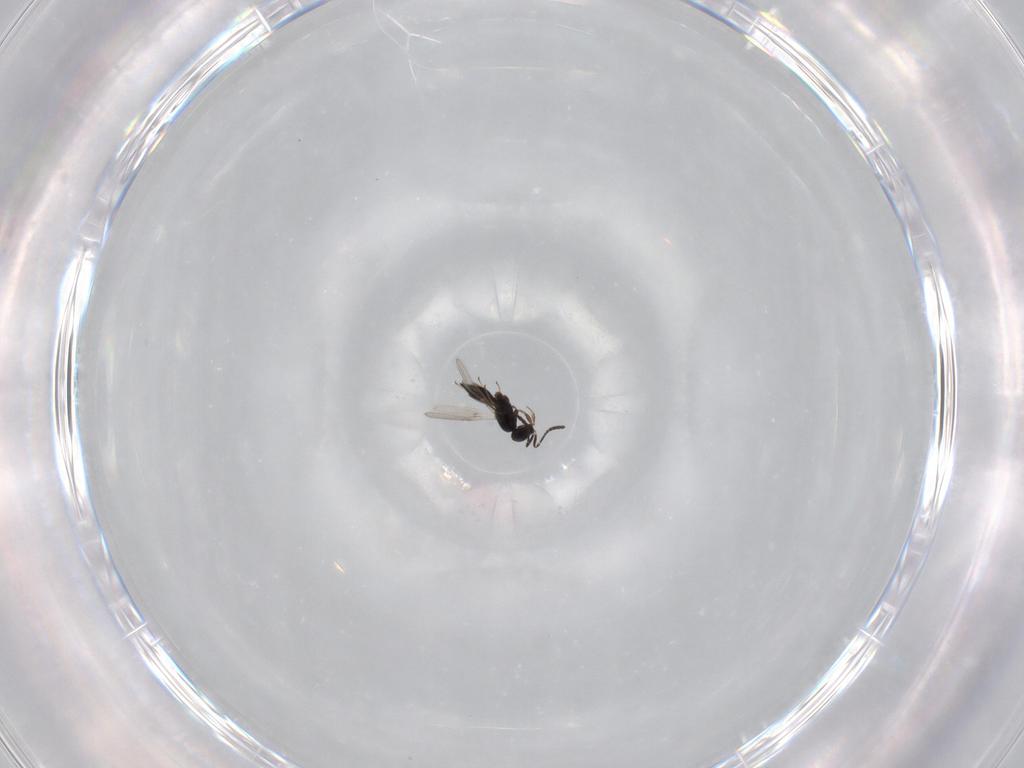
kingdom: Animalia
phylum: Arthropoda
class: Insecta
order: Hymenoptera
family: Scelionidae
